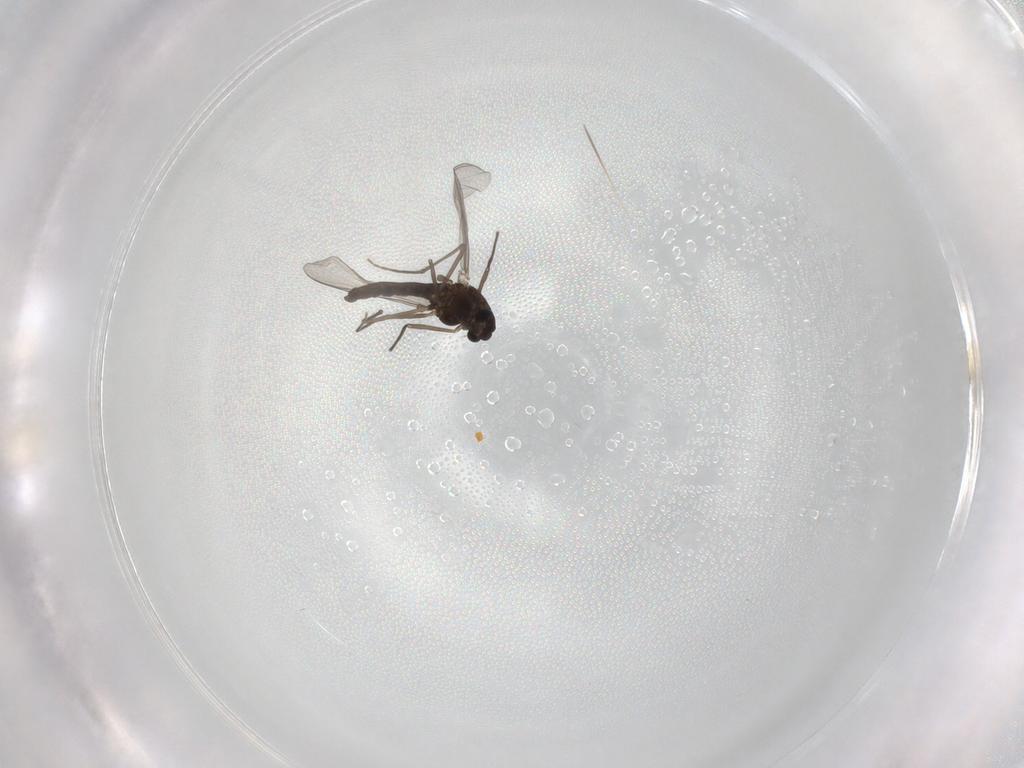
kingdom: Animalia
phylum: Arthropoda
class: Insecta
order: Diptera
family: Chironomidae
